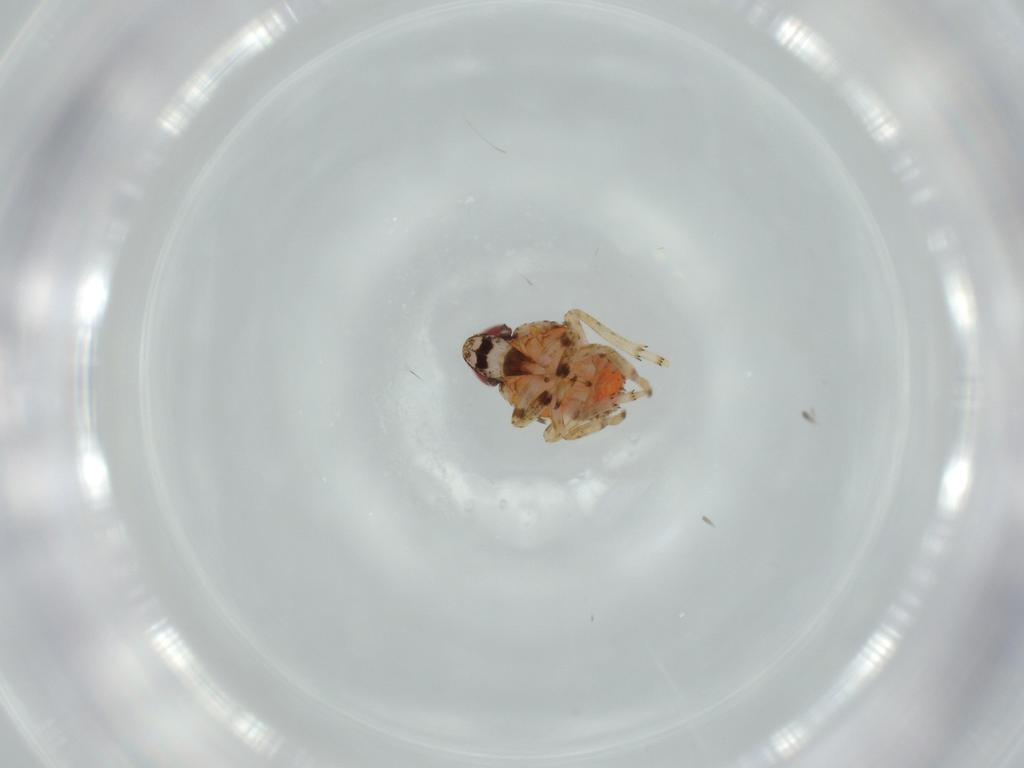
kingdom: Animalia
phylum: Arthropoda
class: Insecta
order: Hemiptera
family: Issidae
